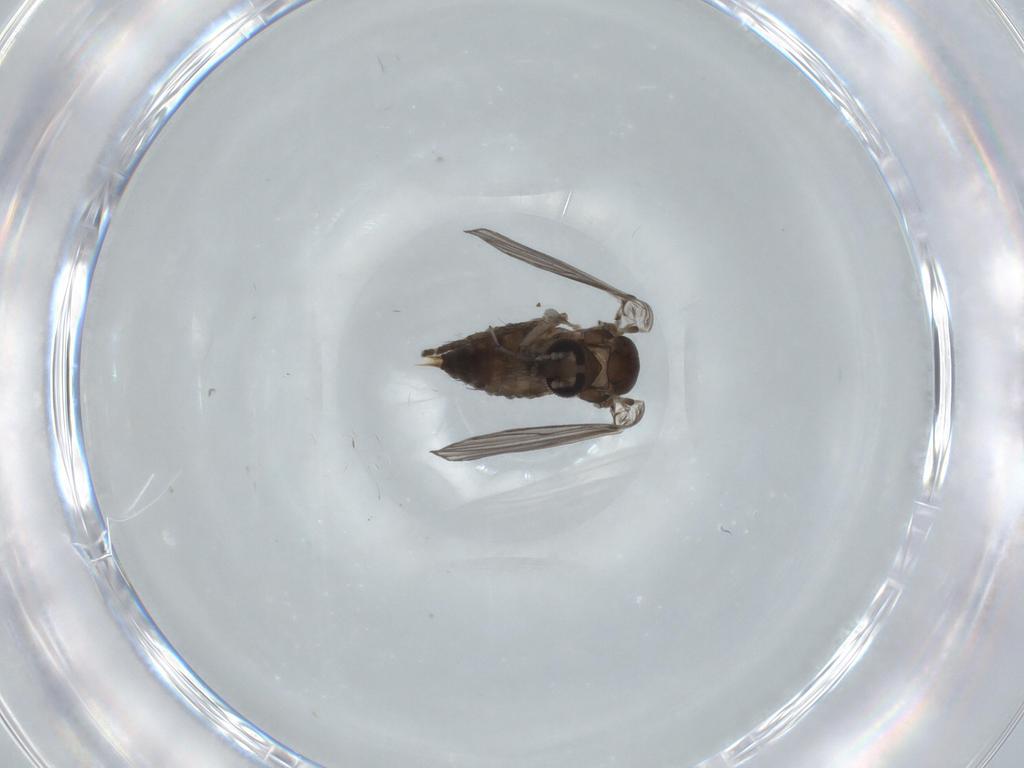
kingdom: Animalia
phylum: Arthropoda
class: Insecta
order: Diptera
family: Psychodidae
